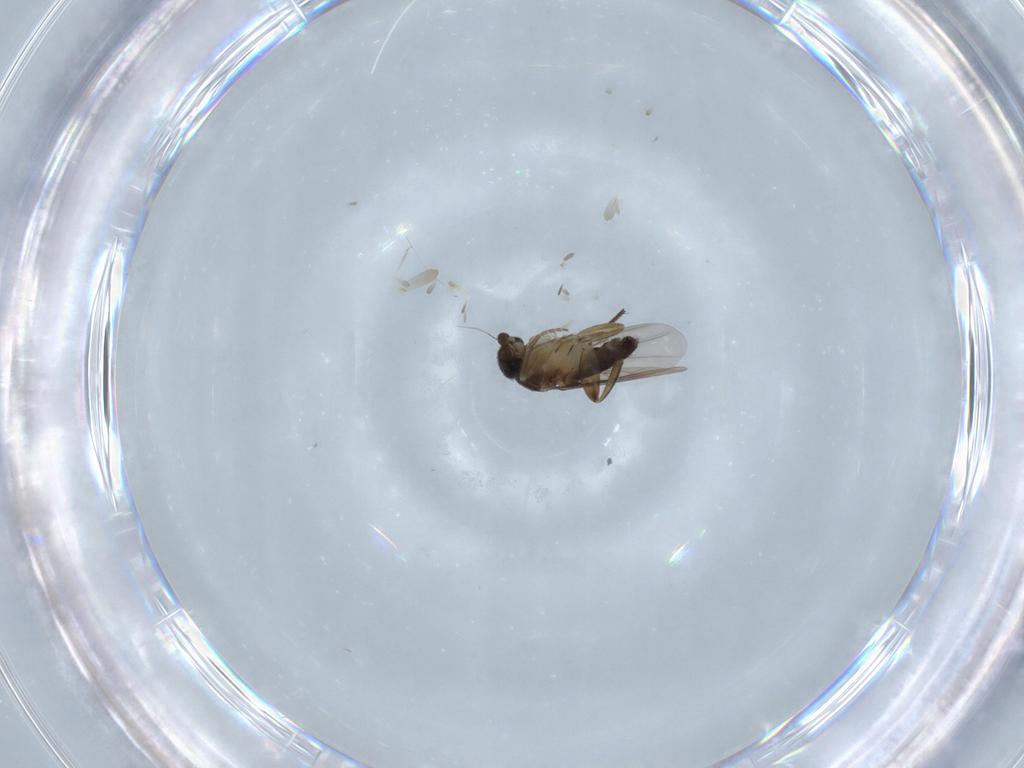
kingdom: Animalia
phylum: Arthropoda
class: Insecta
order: Diptera
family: Phoridae
